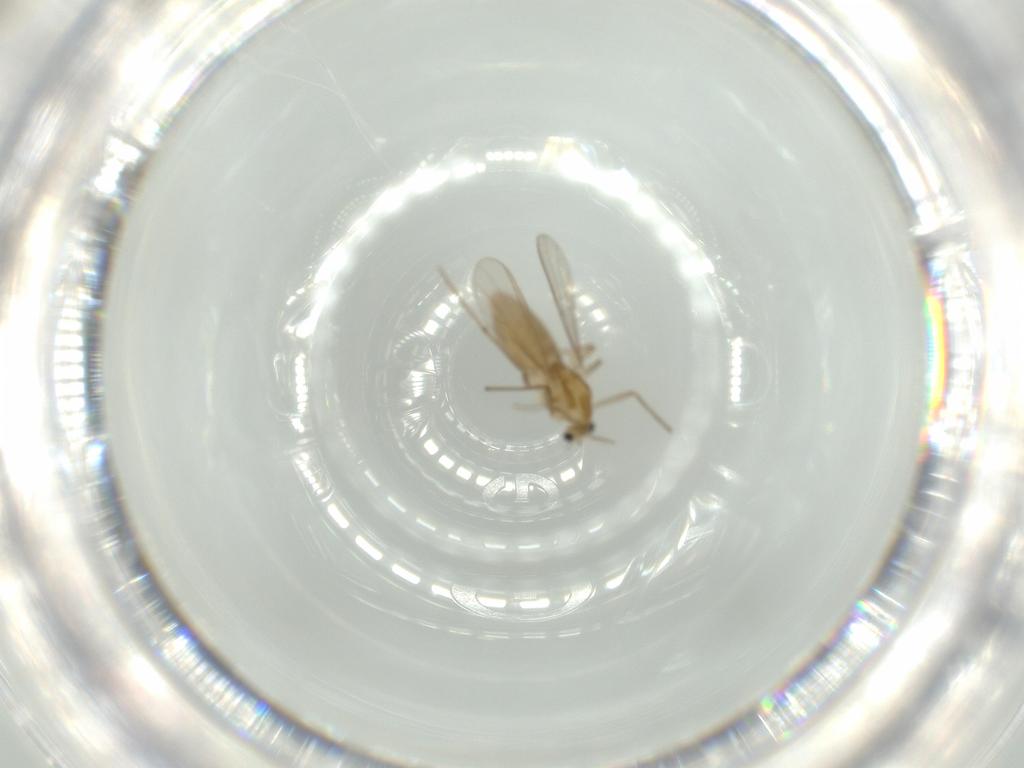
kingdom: Animalia
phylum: Arthropoda
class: Insecta
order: Diptera
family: Chironomidae
